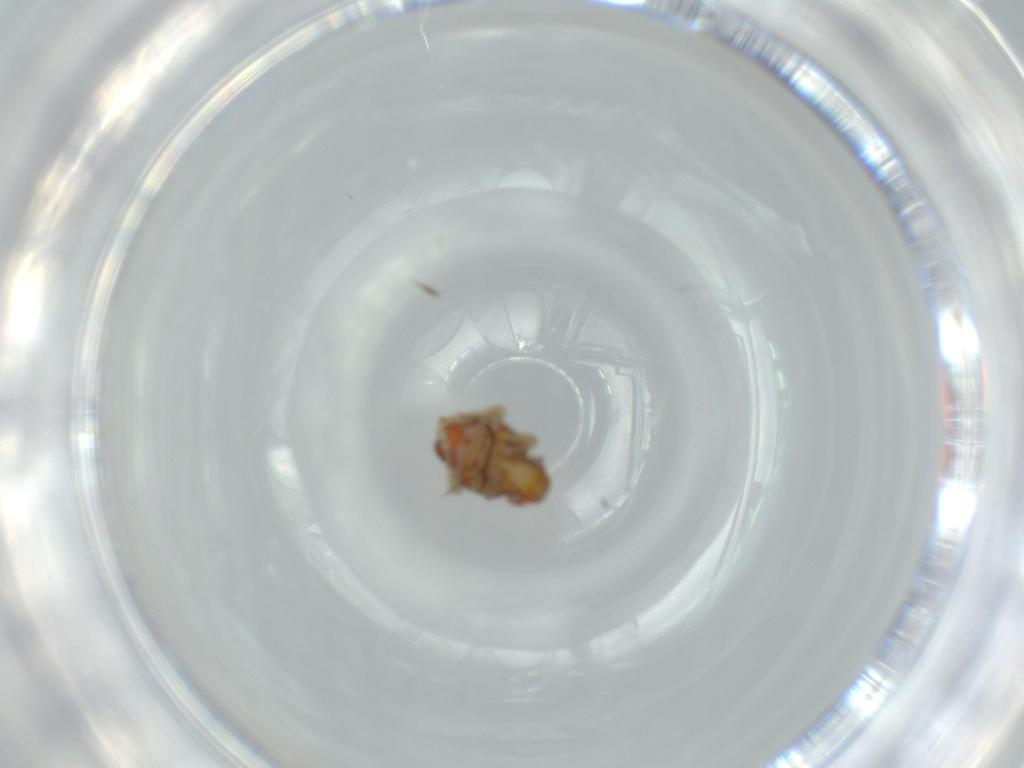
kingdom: Animalia
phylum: Arthropoda
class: Insecta
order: Hemiptera
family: Issidae
